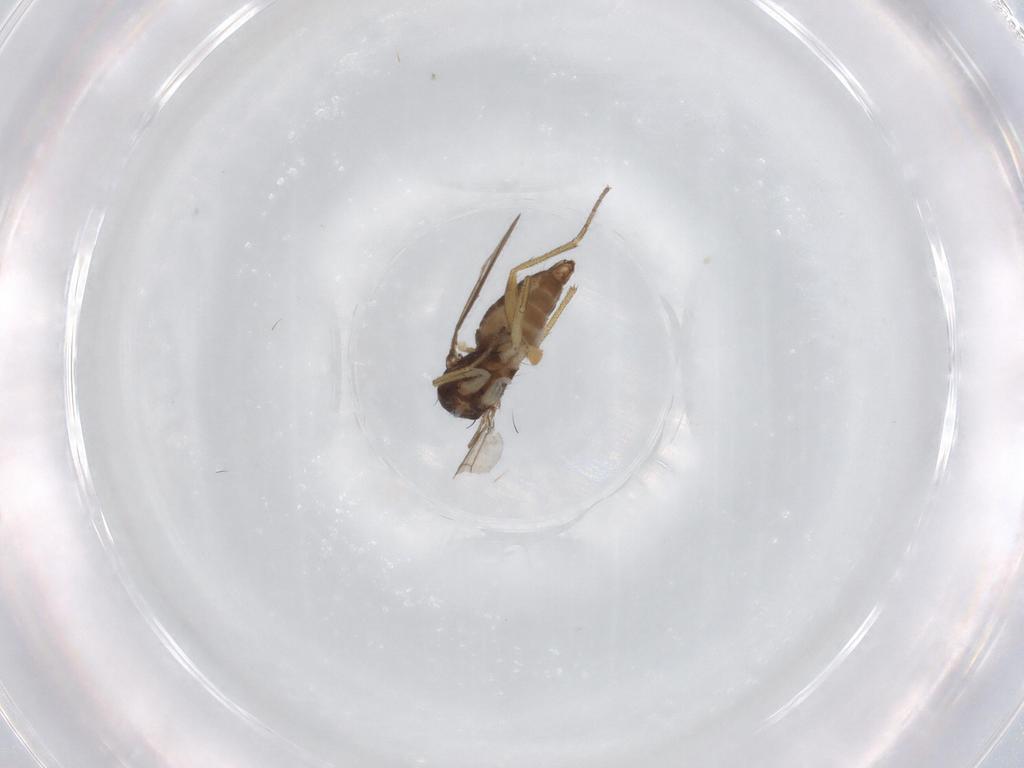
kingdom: Animalia
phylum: Arthropoda
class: Insecta
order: Diptera
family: Dolichopodidae
